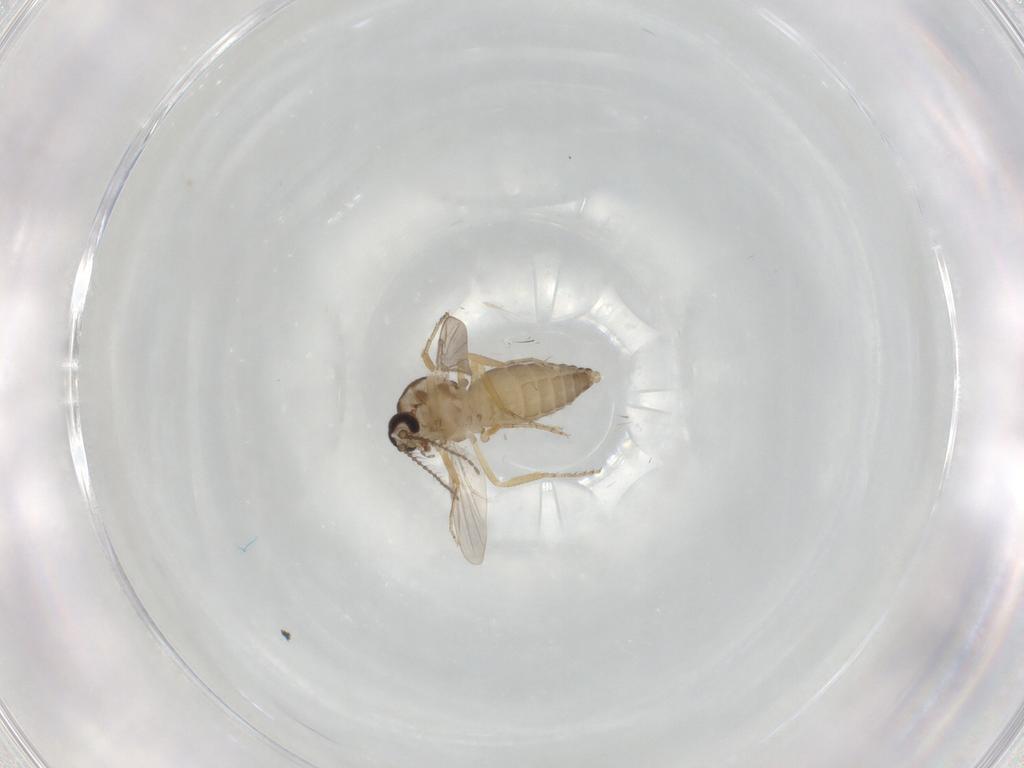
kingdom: Animalia
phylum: Arthropoda
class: Insecta
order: Diptera
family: Ceratopogonidae
